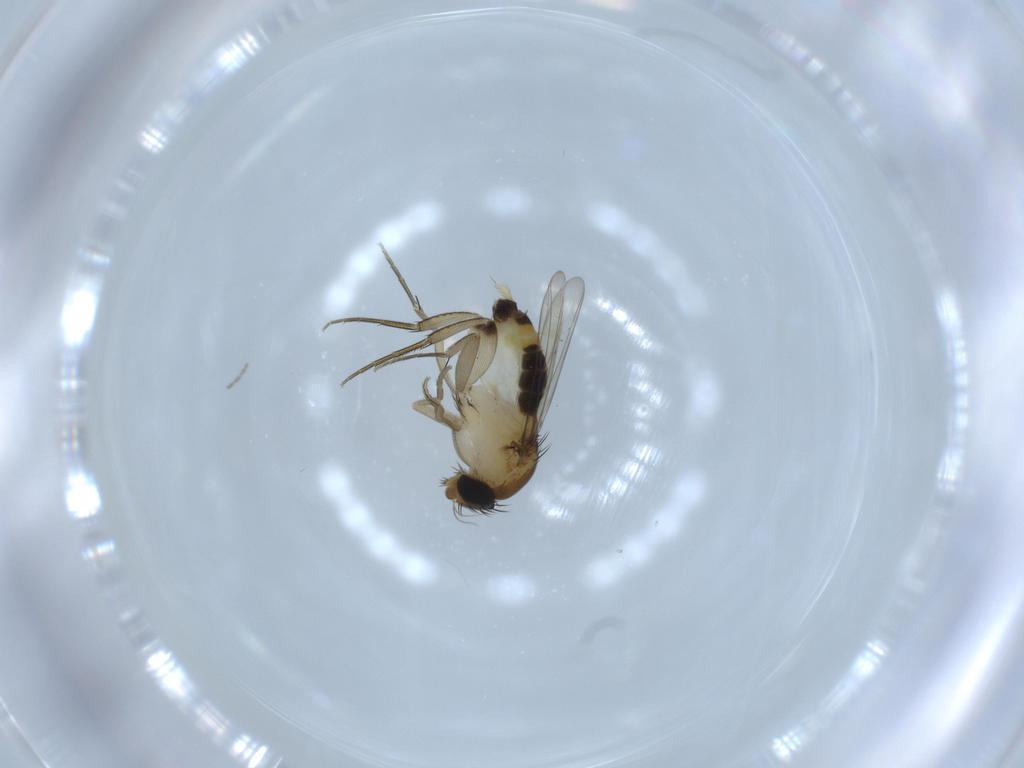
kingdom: Animalia
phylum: Arthropoda
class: Insecta
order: Diptera
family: Cecidomyiidae
